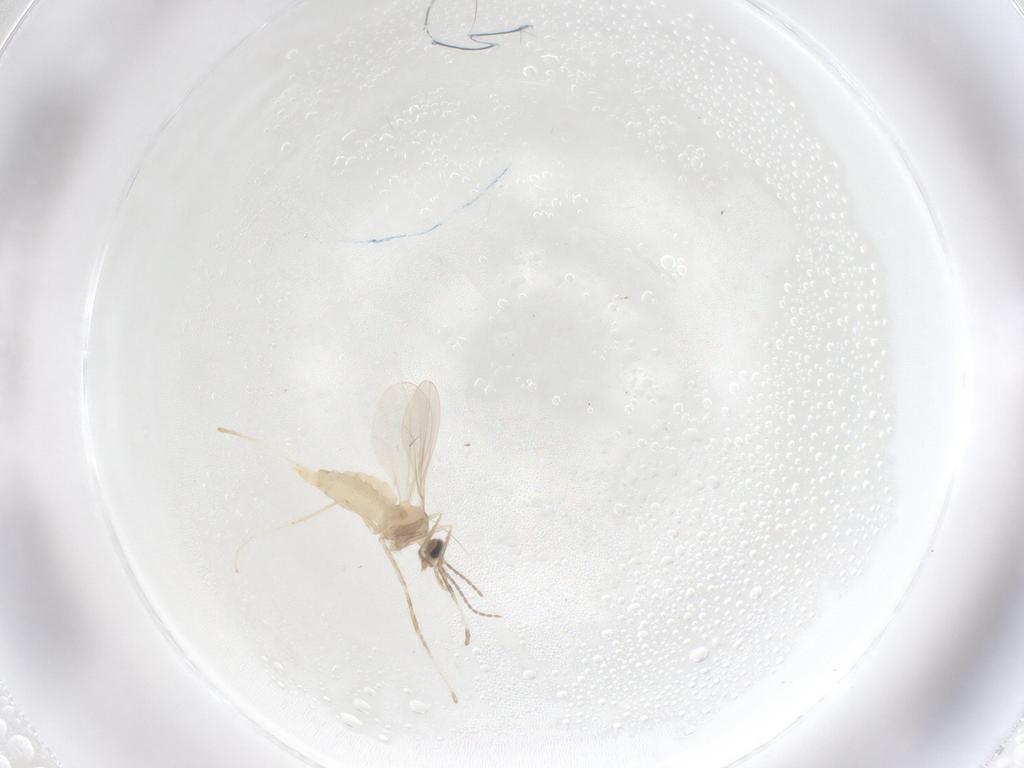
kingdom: Animalia
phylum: Arthropoda
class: Insecta
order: Diptera
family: Cecidomyiidae
